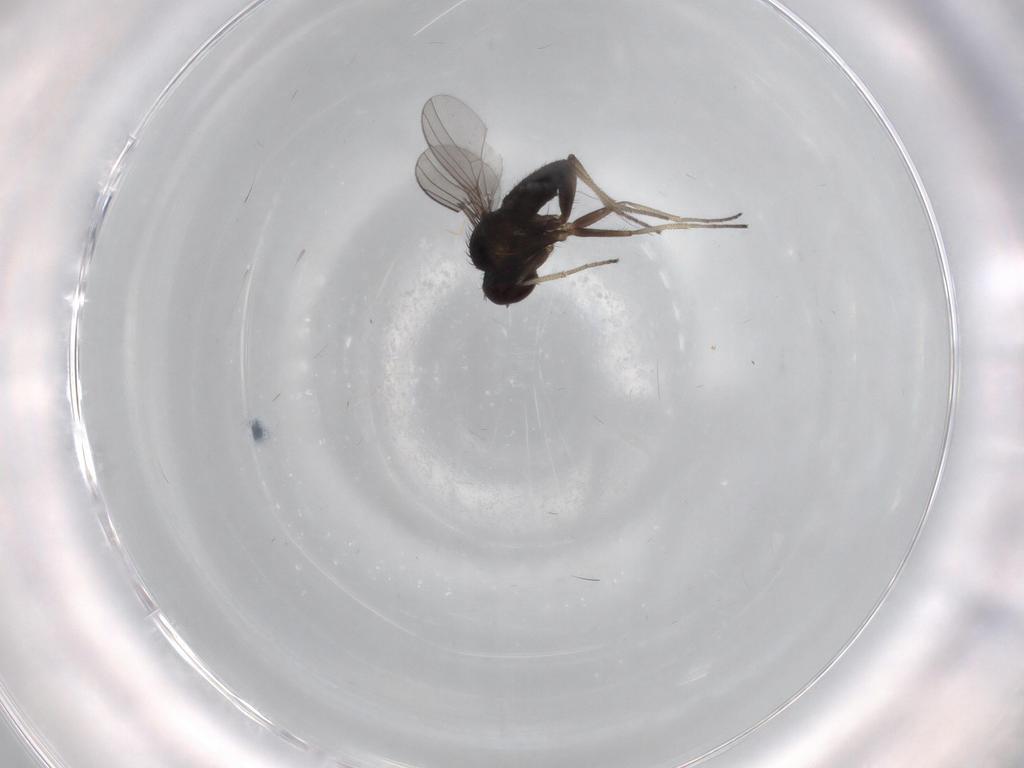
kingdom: Animalia
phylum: Arthropoda
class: Insecta
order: Diptera
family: Dolichopodidae
